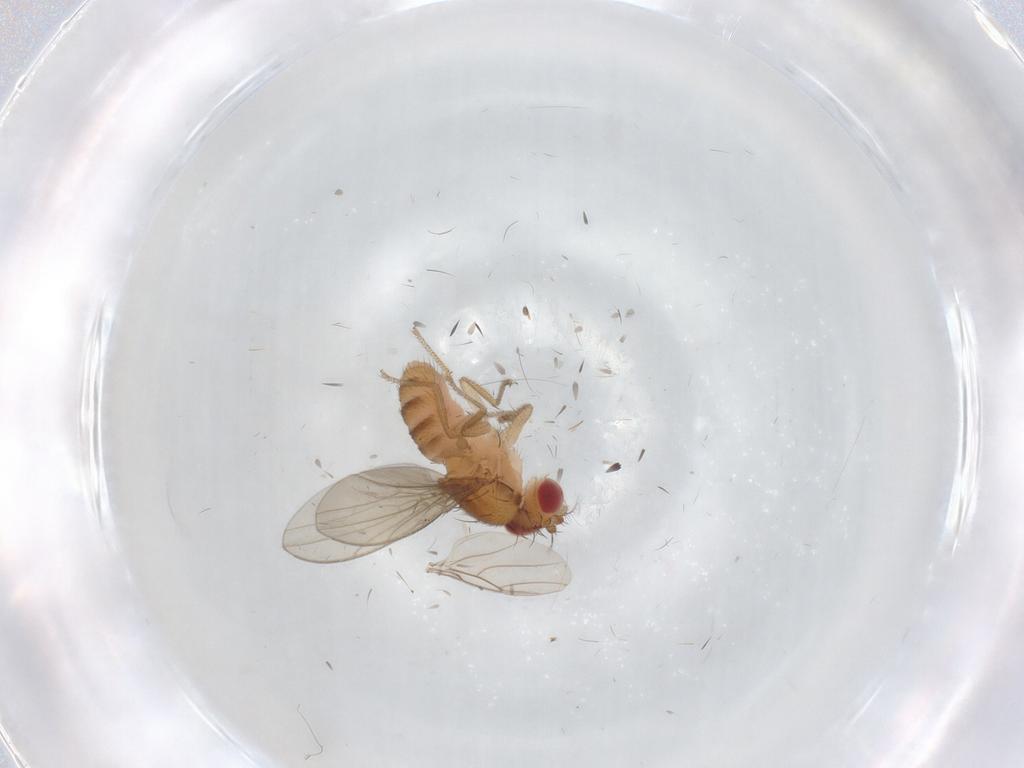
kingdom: Animalia
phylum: Arthropoda
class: Insecta
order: Diptera
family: Drosophilidae
